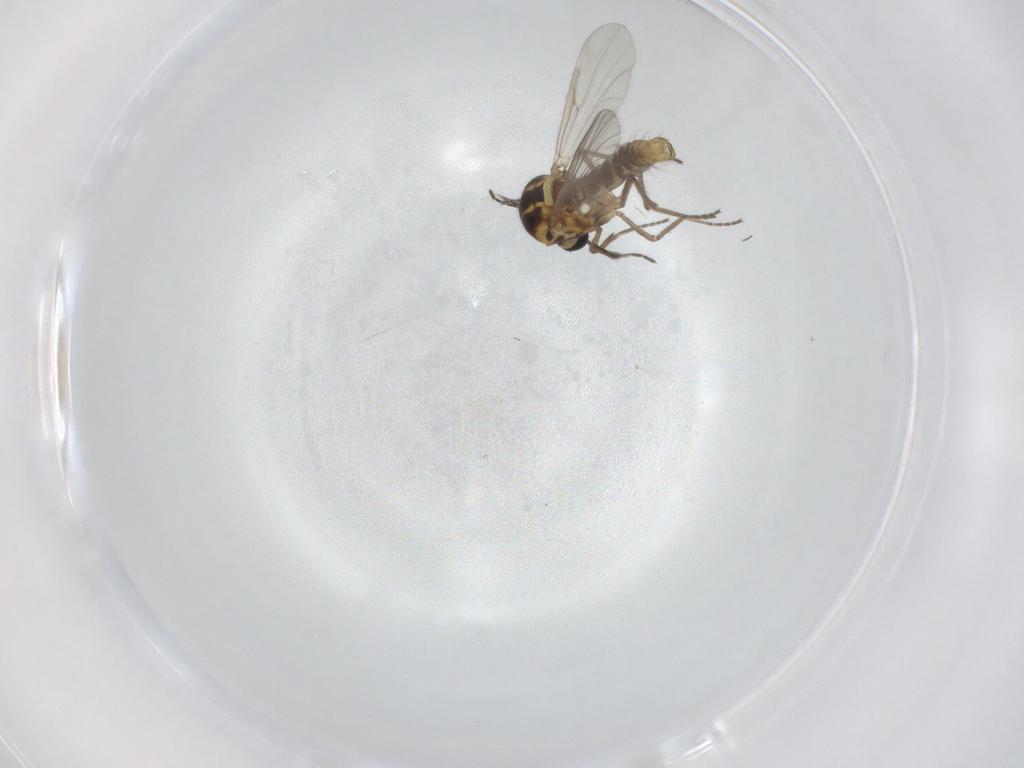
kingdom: Animalia
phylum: Arthropoda
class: Insecta
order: Diptera
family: Ceratopogonidae
